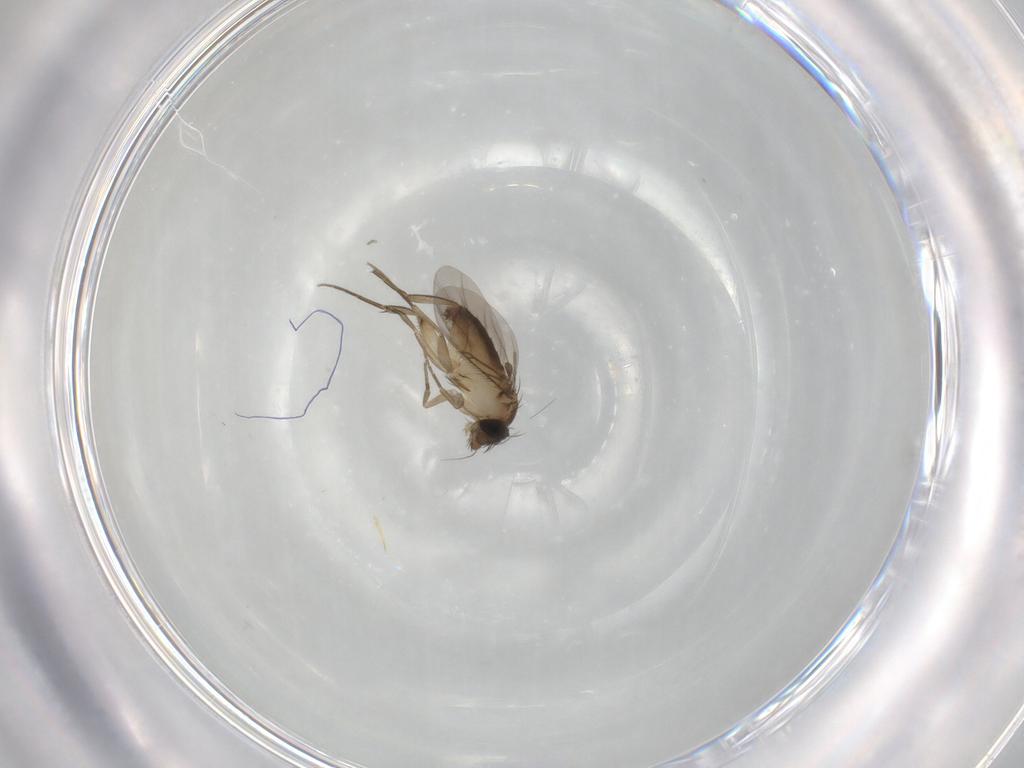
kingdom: Animalia
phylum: Arthropoda
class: Insecta
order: Diptera
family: Phoridae
